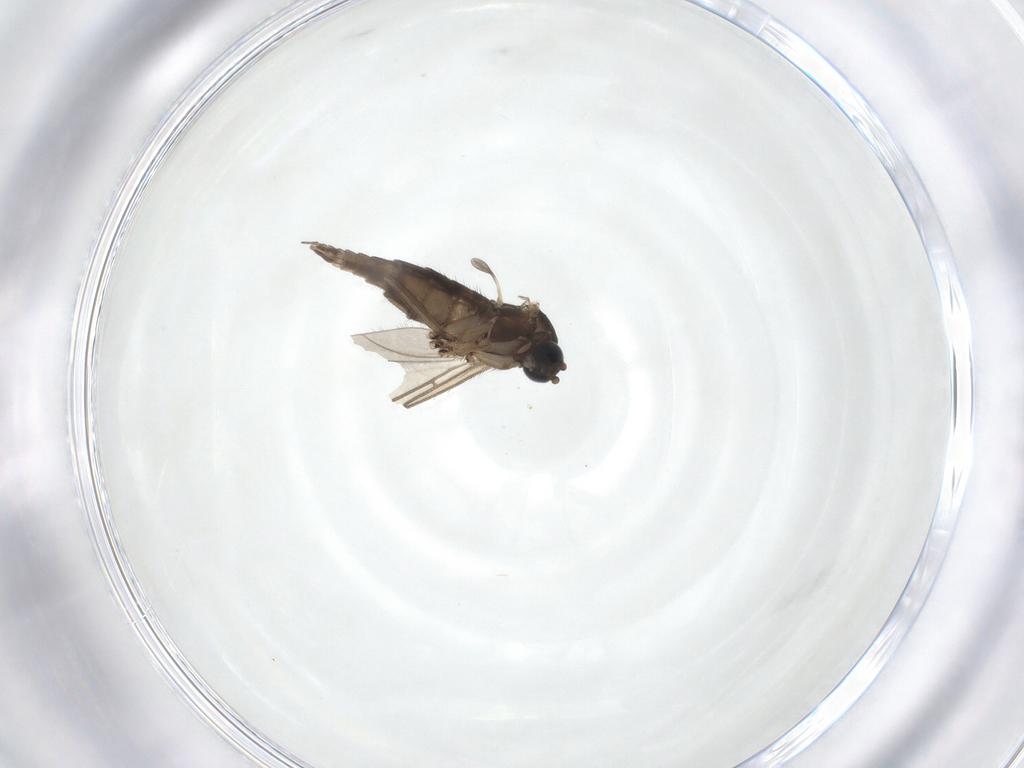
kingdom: Animalia
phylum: Arthropoda
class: Insecta
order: Diptera
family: Sciaridae
